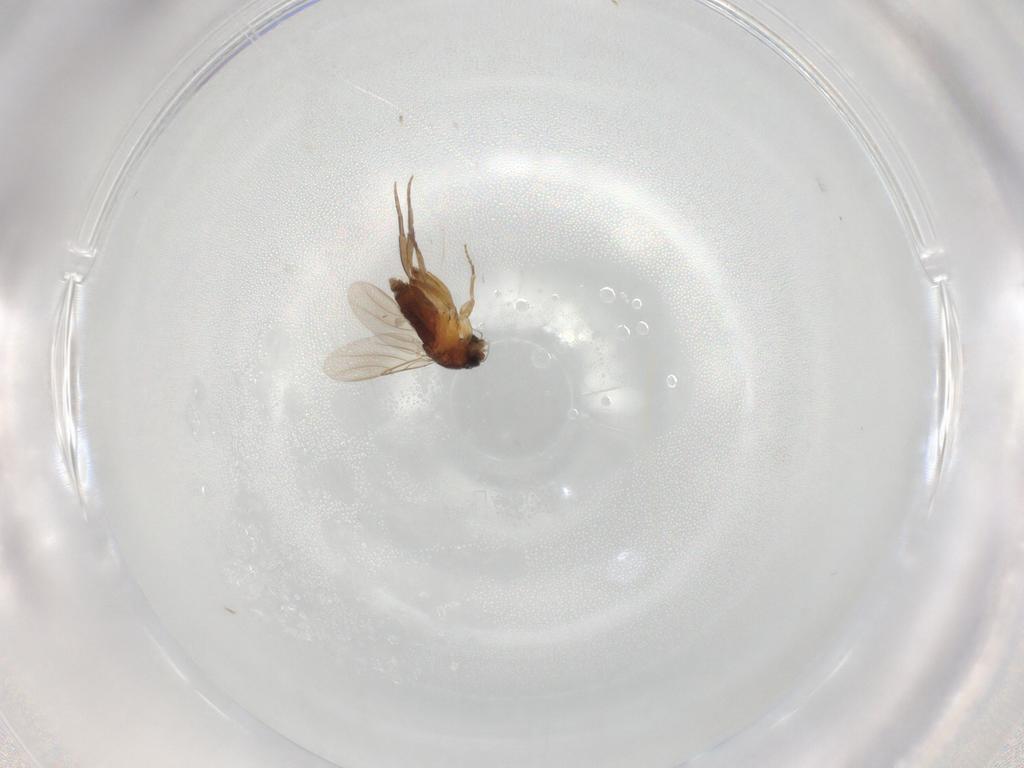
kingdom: Animalia
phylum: Arthropoda
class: Insecta
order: Diptera
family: Cecidomyiidae
